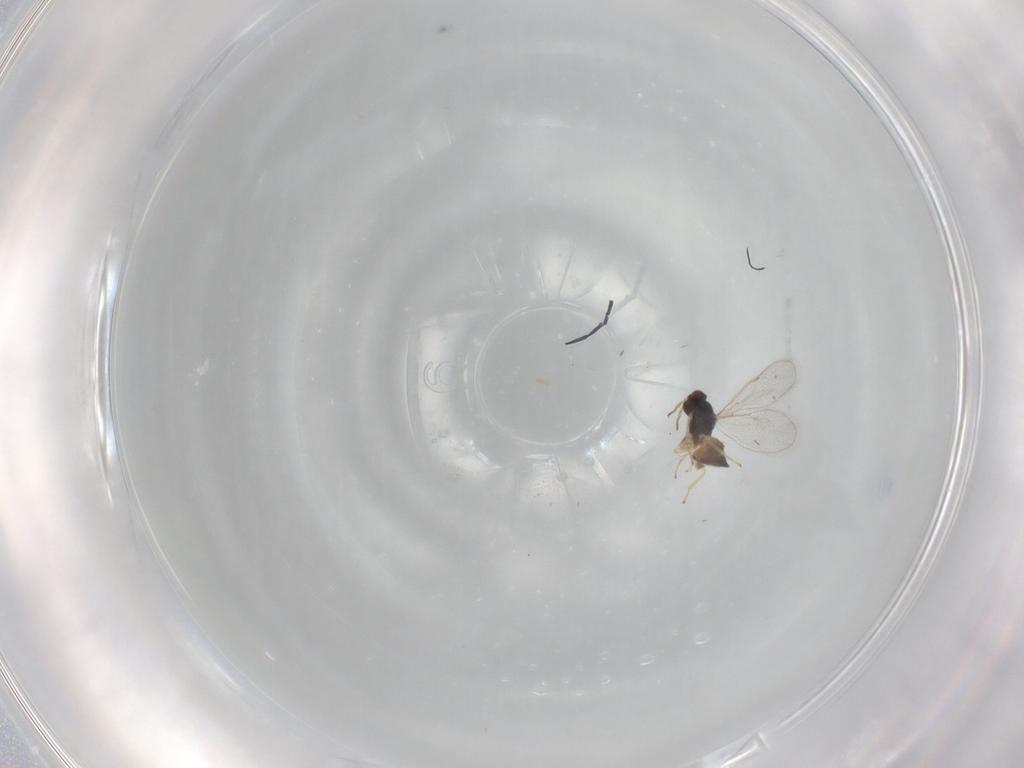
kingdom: Animalia
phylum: Arthropoda
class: Insecta
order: Hymenoptera
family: Eulophidae
